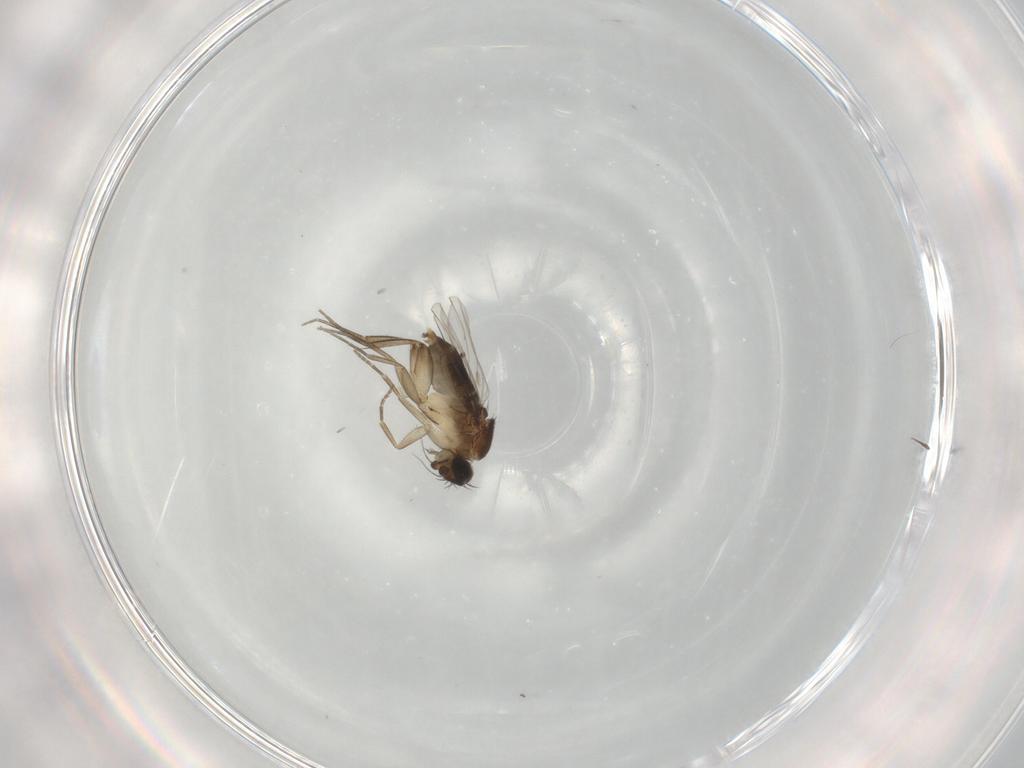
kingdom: Animalia
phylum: Arthropoda
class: Insecta
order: Diptera
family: Phoridae
